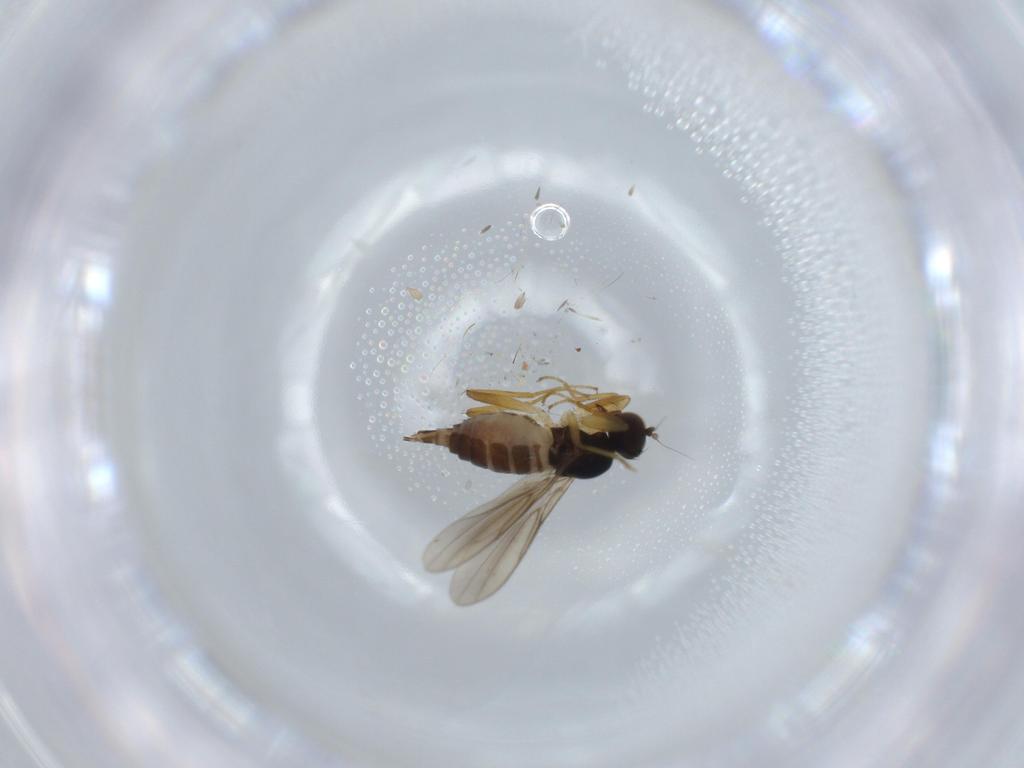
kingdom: Animalia
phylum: Arthropoda
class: Insecta
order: Diptera
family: Hybotidae
